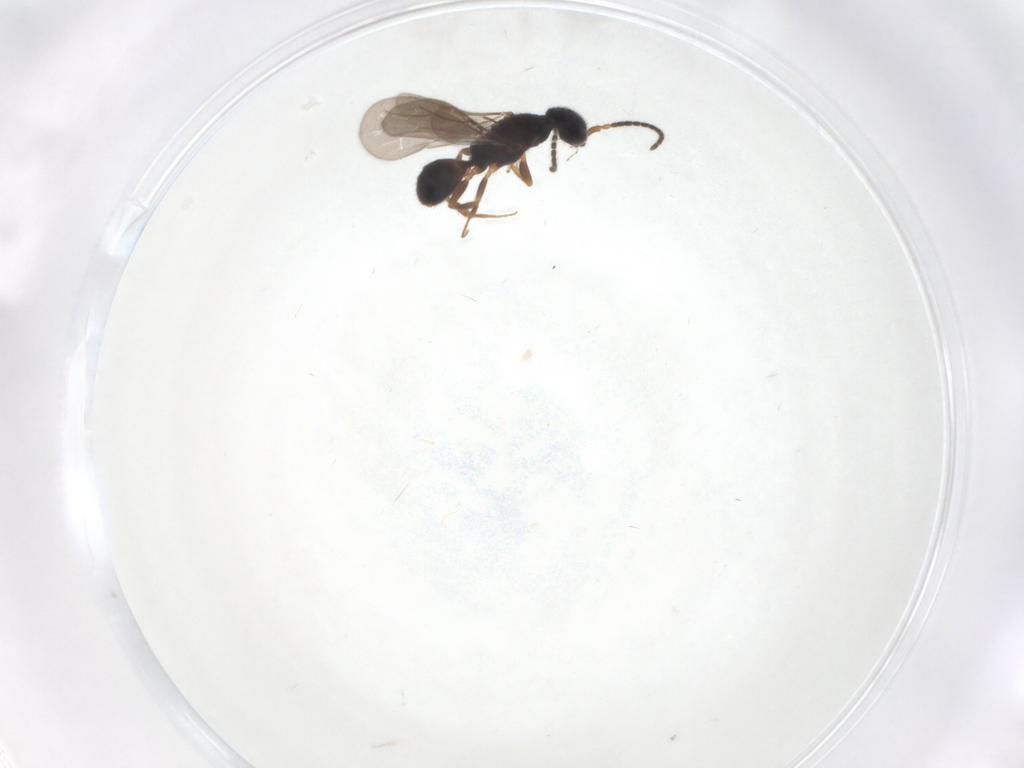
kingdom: Animalia
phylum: Arthropoda
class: Insecta
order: Hymenoptera
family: Bethylidae
